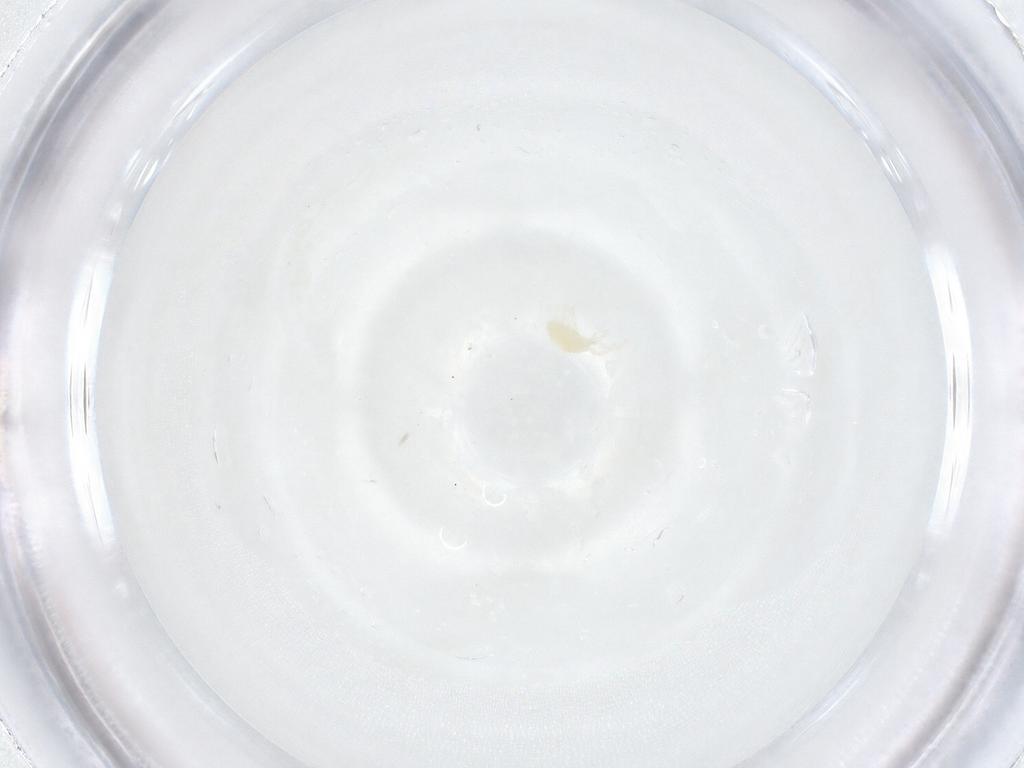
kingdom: Animalia
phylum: Arthropoda
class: Arachnida
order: Trombidiformes
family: Stigmaeidae
